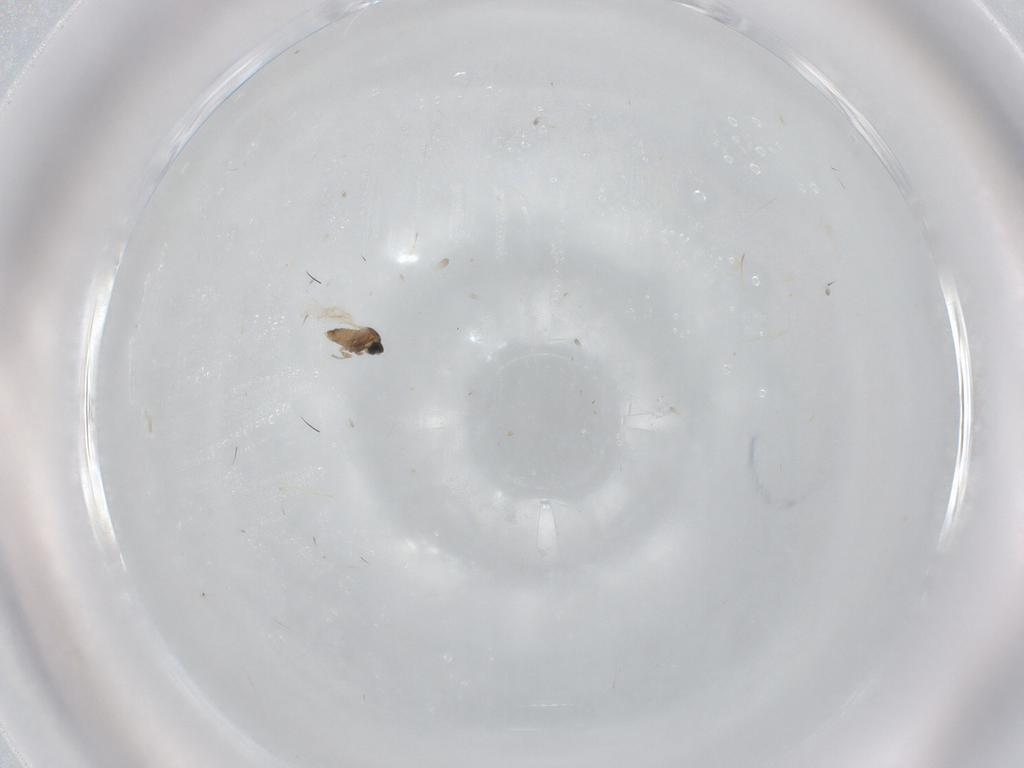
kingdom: Animalia
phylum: Arthropoda
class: Insecta
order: Diptera
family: Cecidomyiidae
